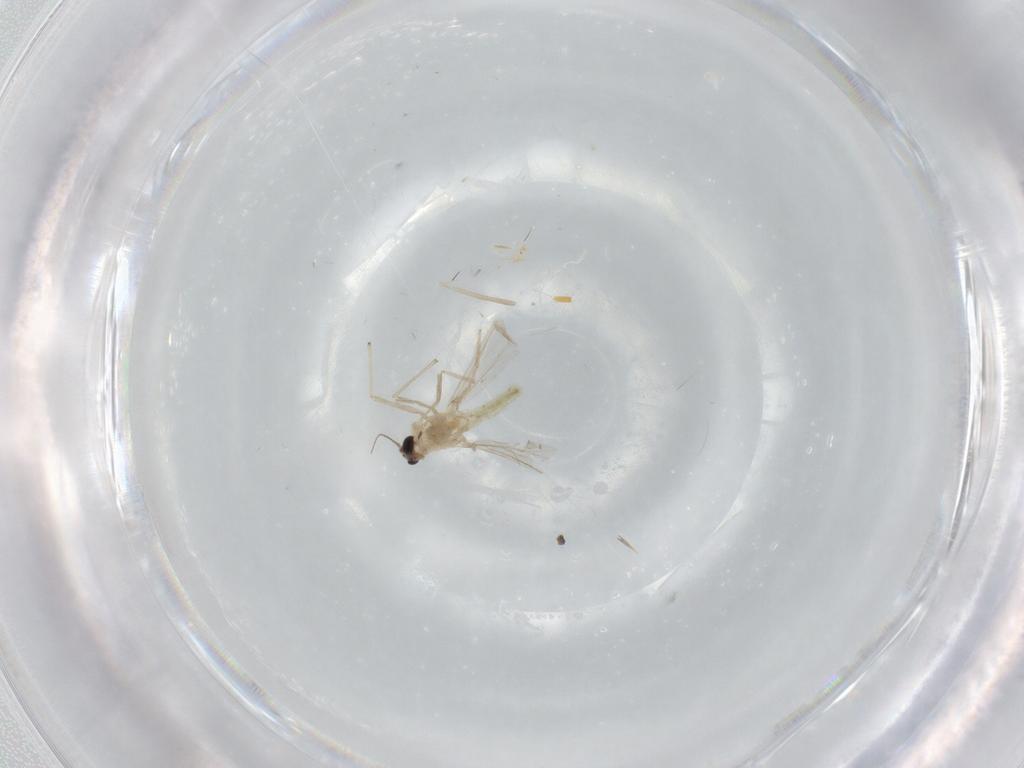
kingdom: Animalia
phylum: Arthropoda
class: Insecta
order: Diptera
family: Chironomidae
